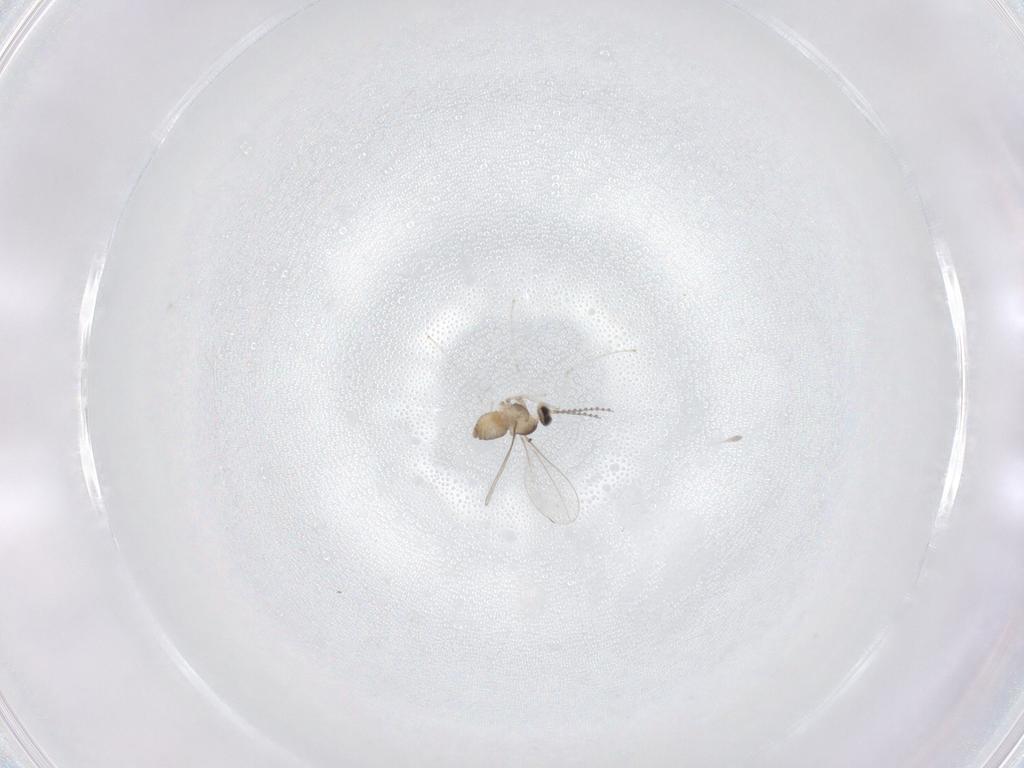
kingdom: Animalia
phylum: Arthropoda
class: Insecta
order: Diptera
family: Cecidomyiidae
